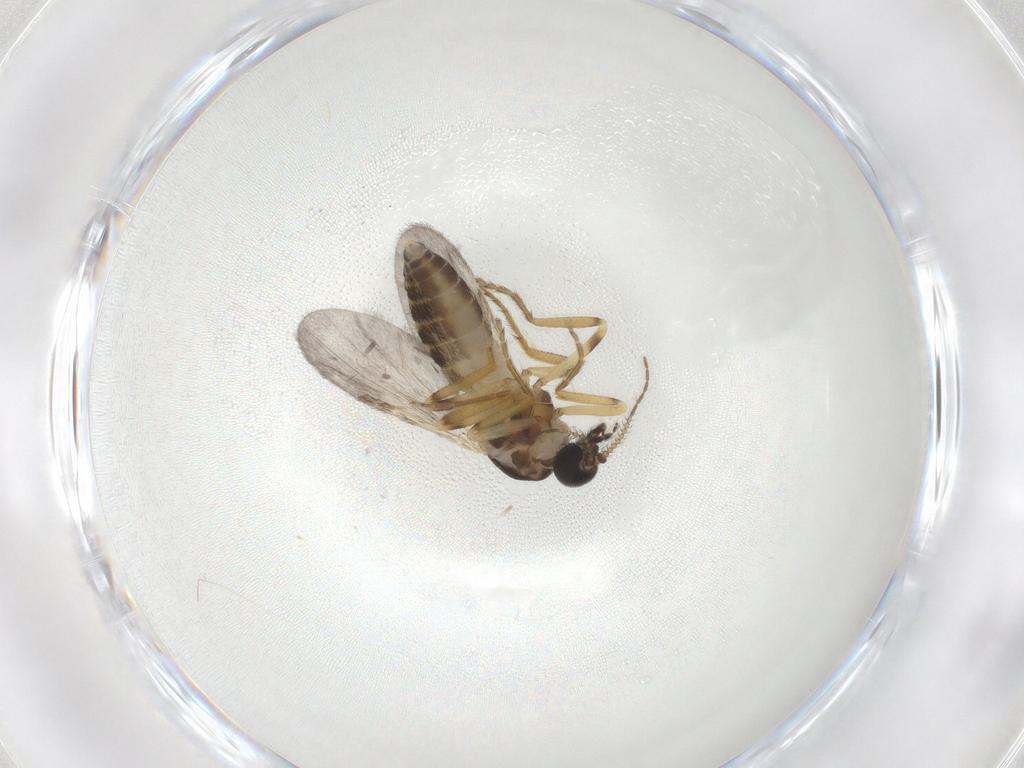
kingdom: Animalia
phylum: Arthropoda
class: Insecta
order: Diptera
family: Ceratopogonidae
